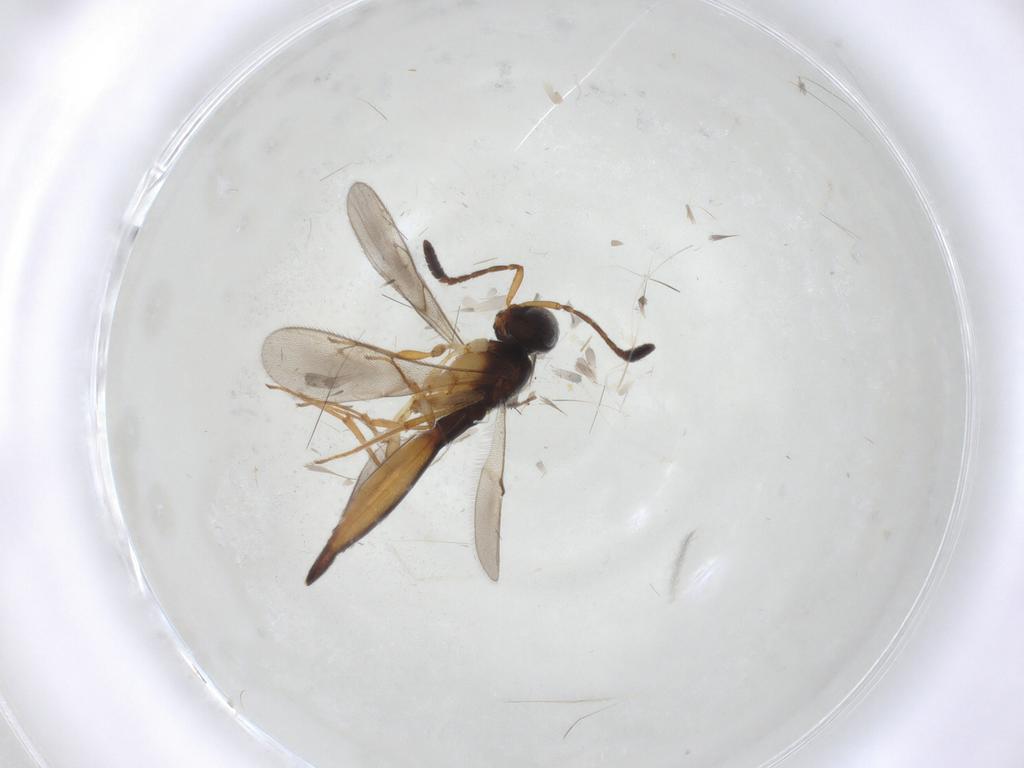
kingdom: Animalia
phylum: Arthropoda
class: Insecta
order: Hymenoptera
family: Scelionidae
